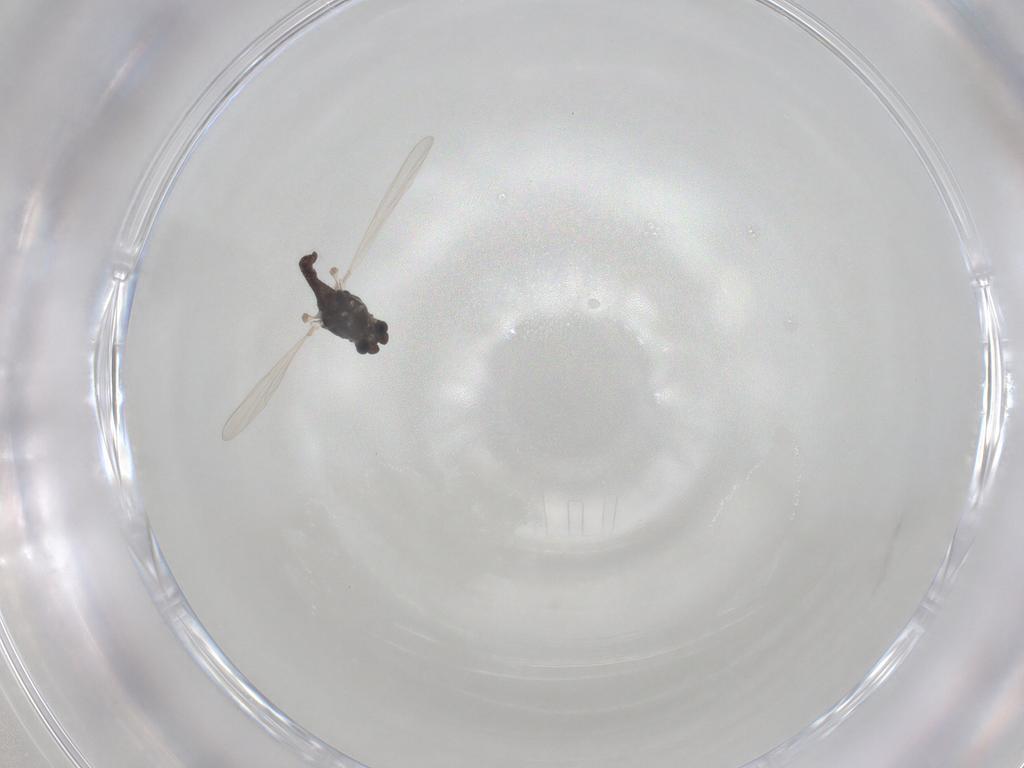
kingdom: Animalia
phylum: Arthropoda
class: Insecta
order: Diptera
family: Chironomidae
